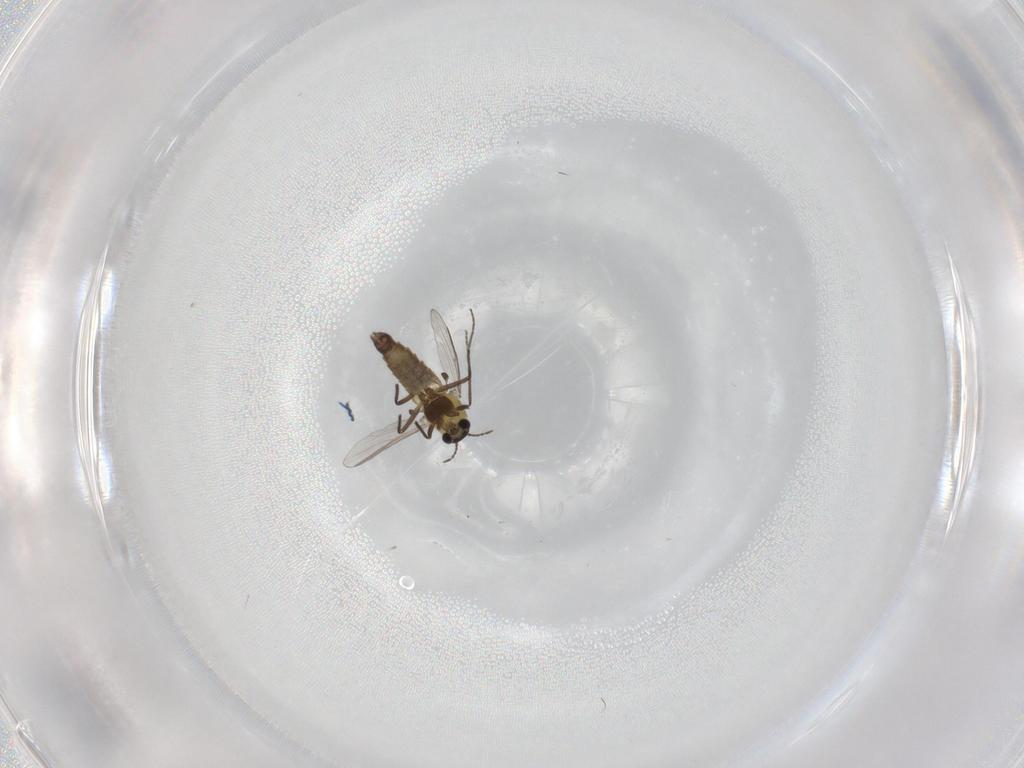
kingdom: Animalia
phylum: Arthropoda
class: Insecta
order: Diptera
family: Chironomidae
